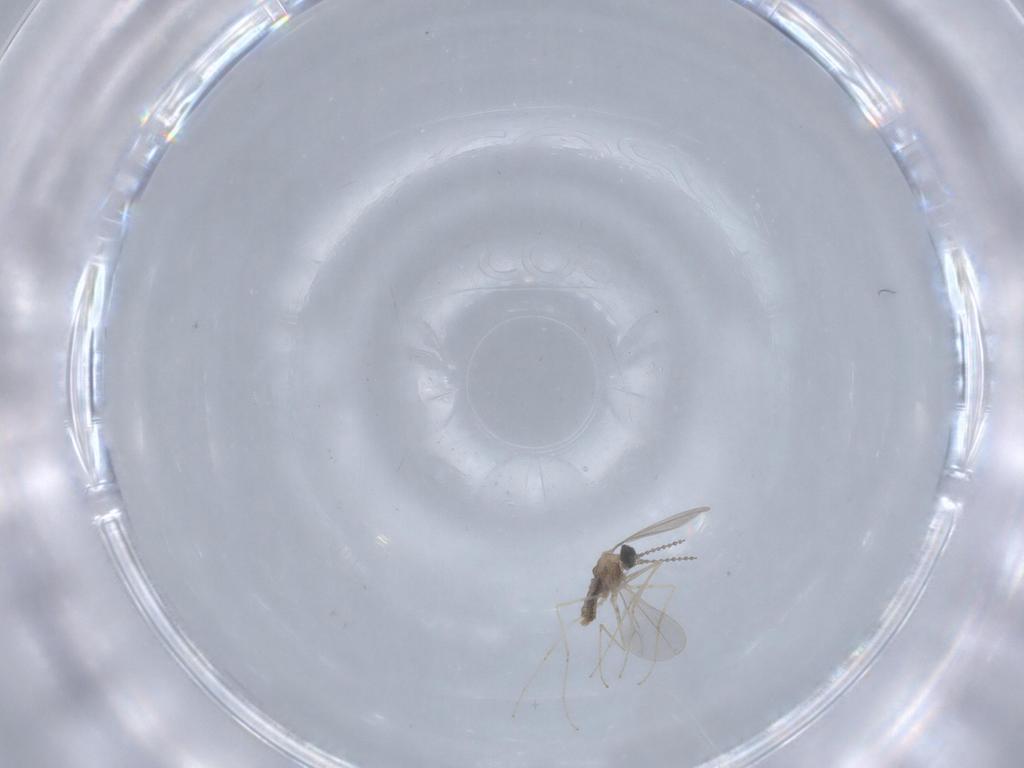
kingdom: Animalia
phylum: Arthropoda
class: Insecta
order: Diptera
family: Cecidomyiidae
